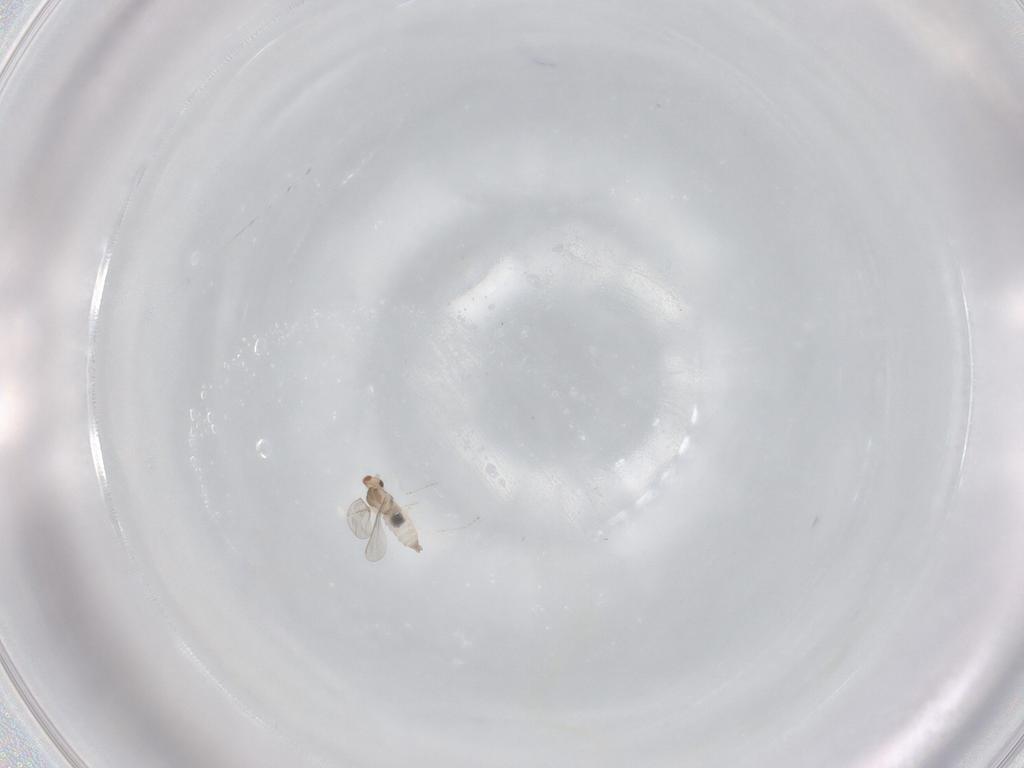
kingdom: Animalia
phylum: Arthropoda
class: Insecta
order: Diptera
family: Cecidomyiidae
